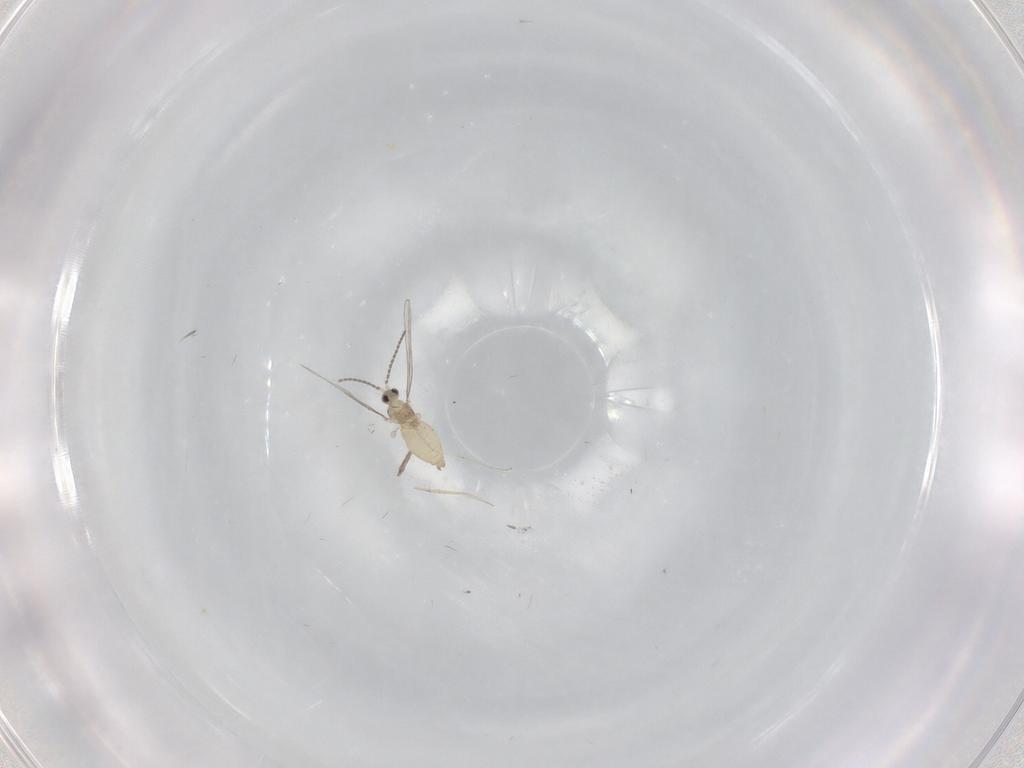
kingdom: Animalia
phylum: Arthropoda
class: Insecta
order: Diptera
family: Cecidomyiidae
